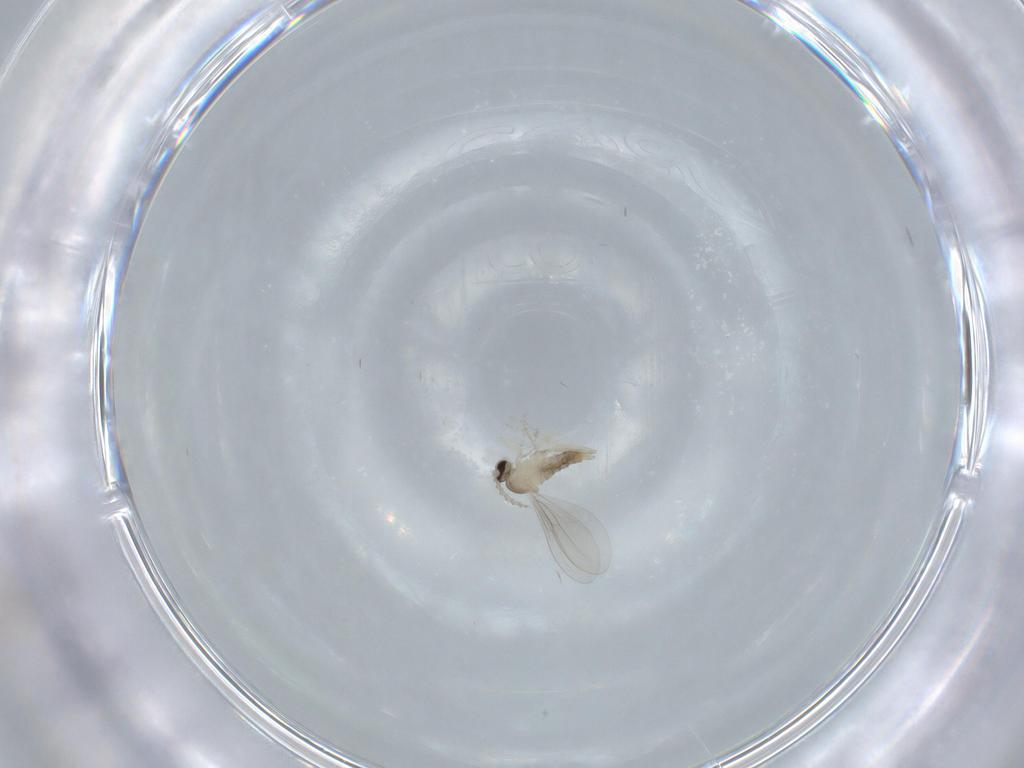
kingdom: Animalia
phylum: Arthropoda
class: Insecta
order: Diptera
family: Cecidomyiidae
